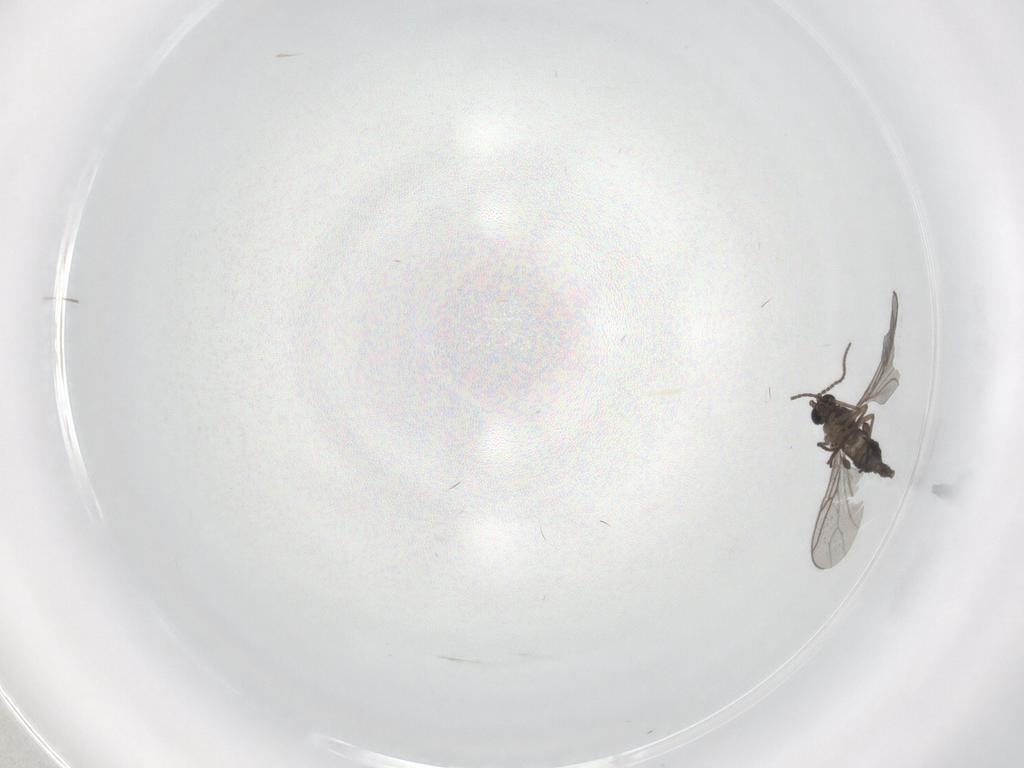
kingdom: Animalia
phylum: Arthropoda
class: Insecta
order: Diptera
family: Sciaridae
